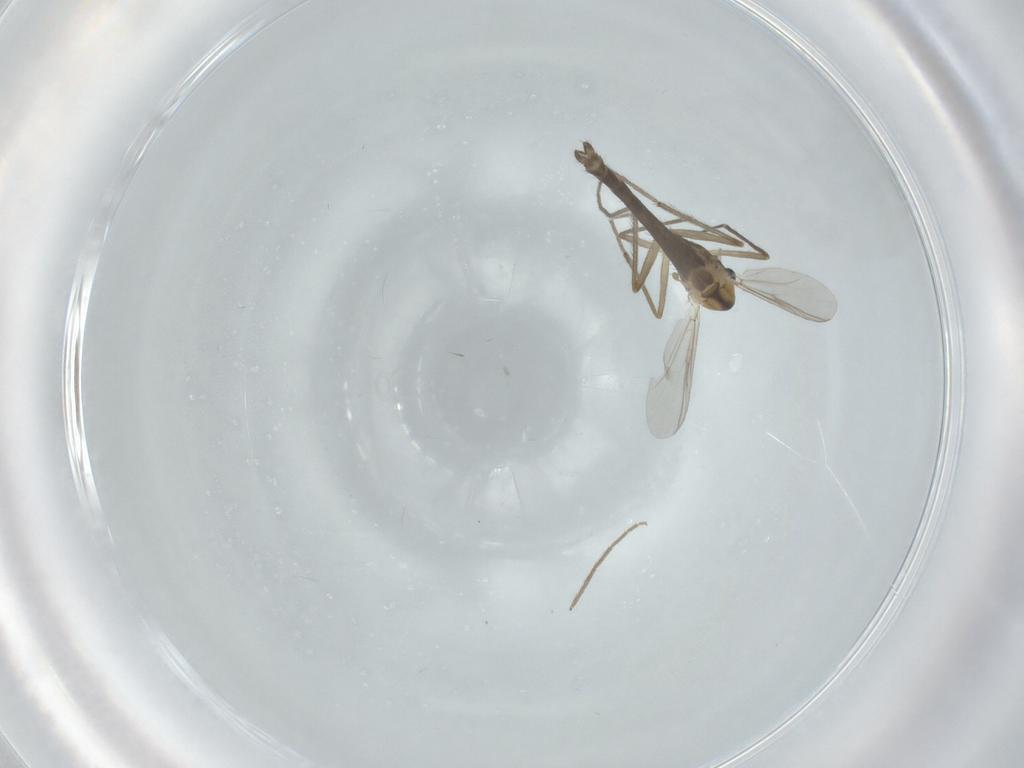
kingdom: Animalia
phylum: Arthropoda
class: Insecta
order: Diptera
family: Chironomidae
